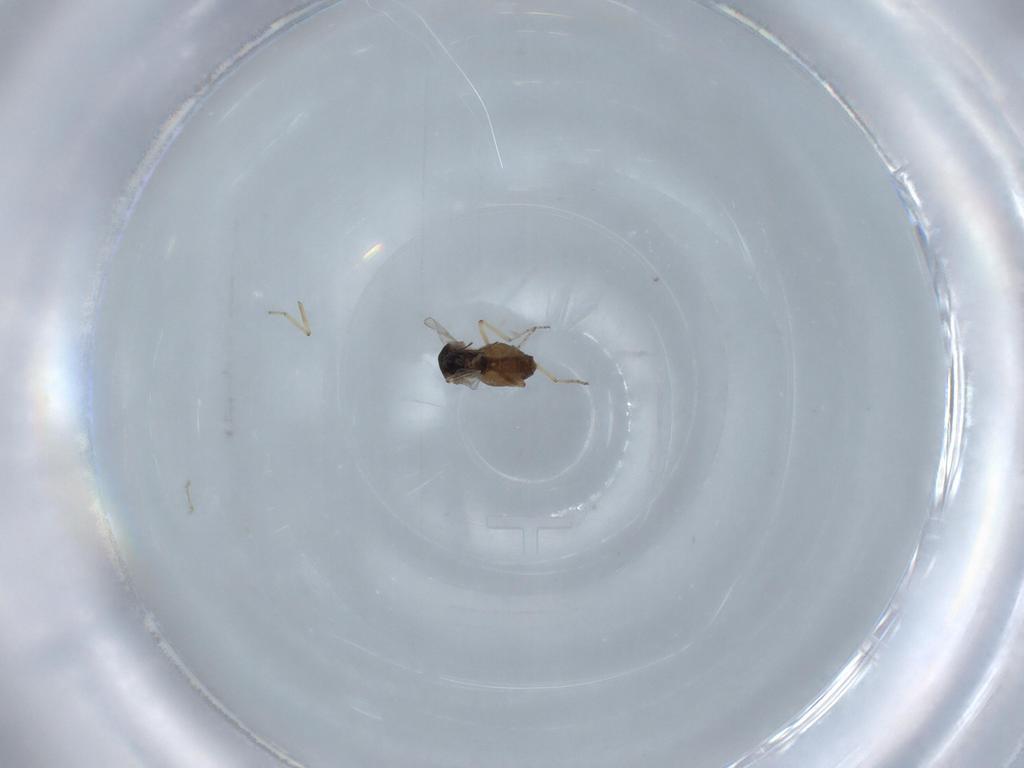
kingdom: Animalia
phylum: Arthropoda
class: Insecta
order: Diptera
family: Ceratopogonidae
